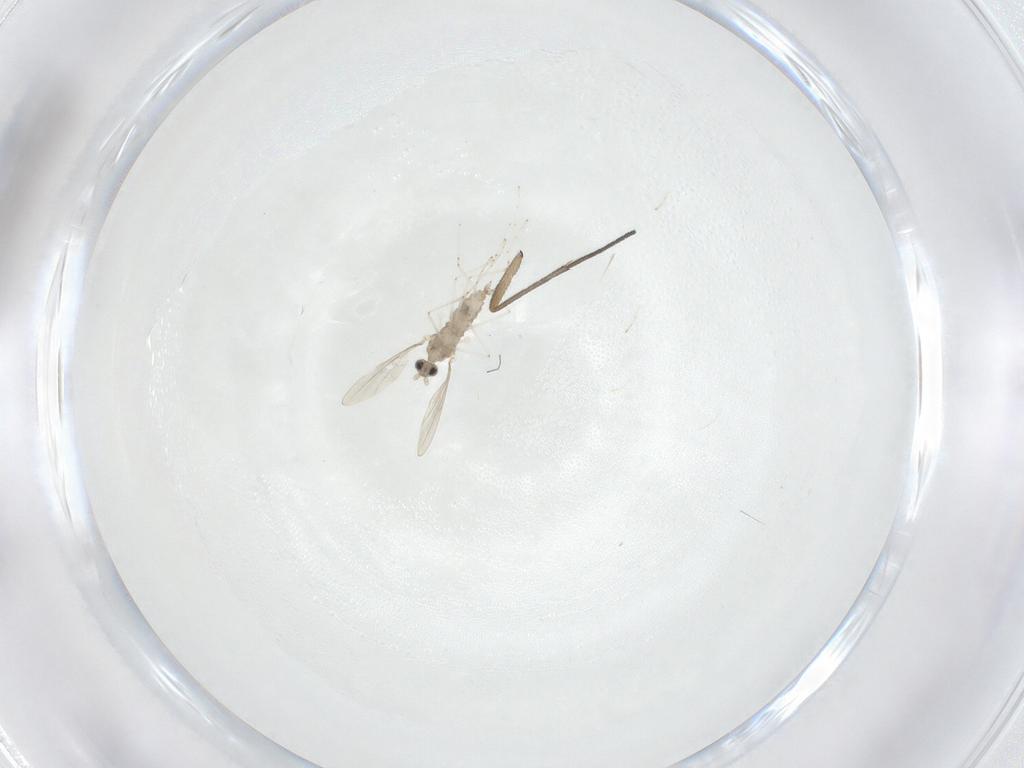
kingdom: Animalia
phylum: Arthropoda
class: Insecta
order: Diptera
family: Cecidomyiidae
